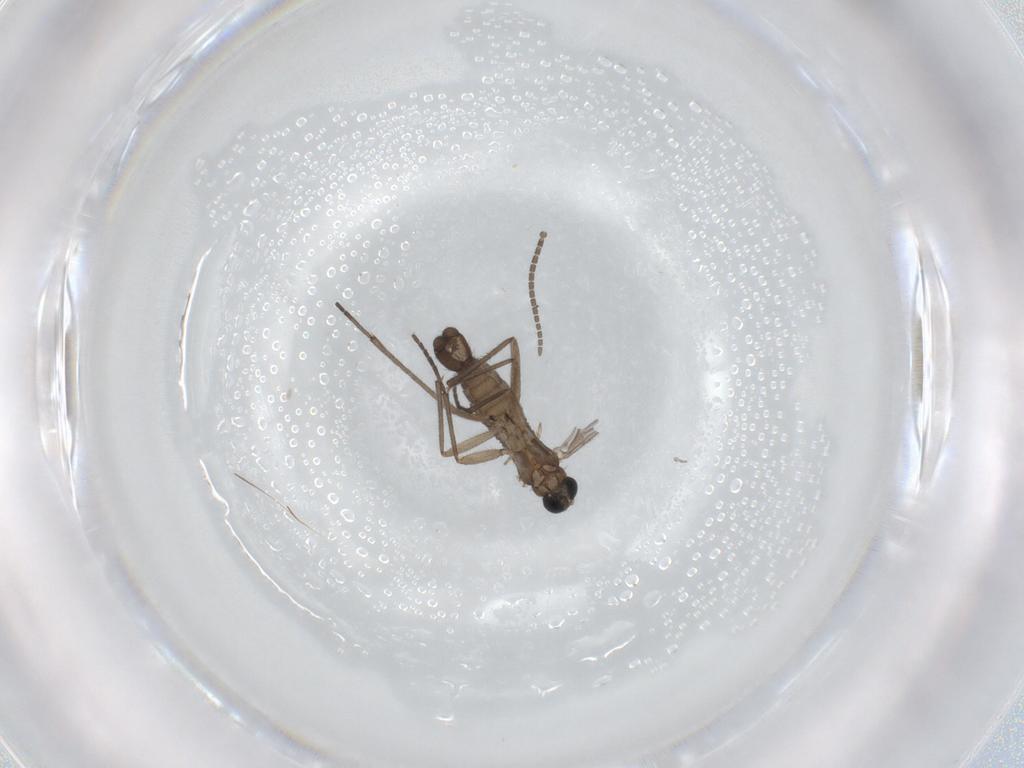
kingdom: Animalia
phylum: Arthropoda
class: Insecta
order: Diptera
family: Sciaridae
